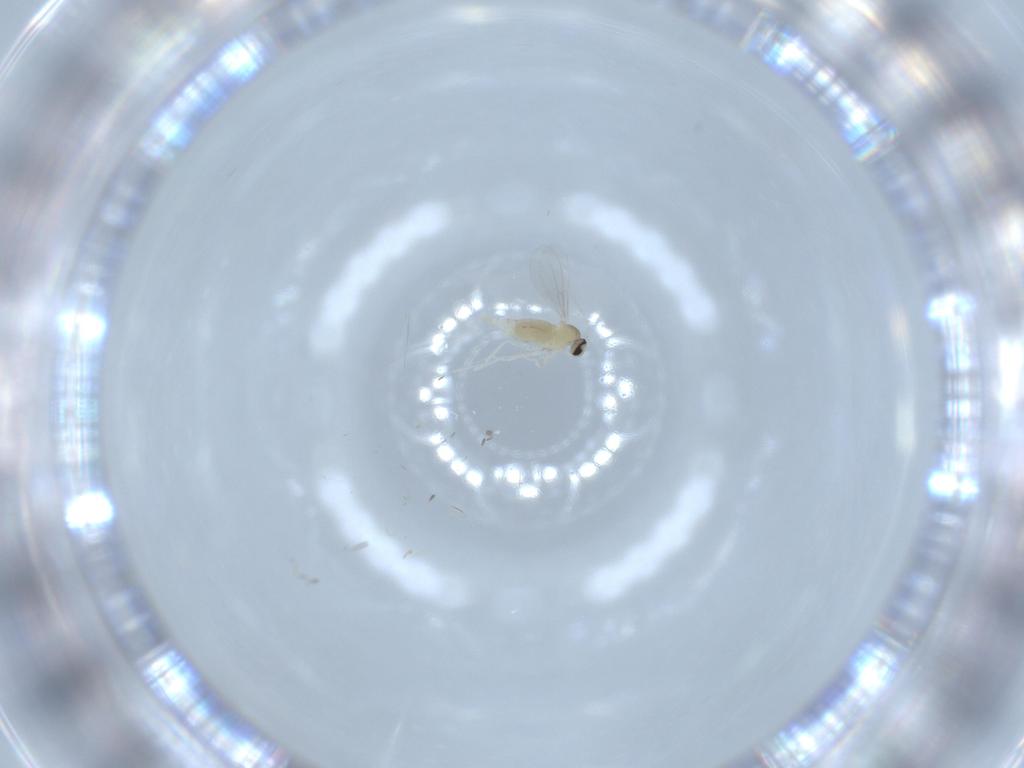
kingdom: Animalia
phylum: Arthropoda
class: Insecta
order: Diptera
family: Cecidomyiidae
